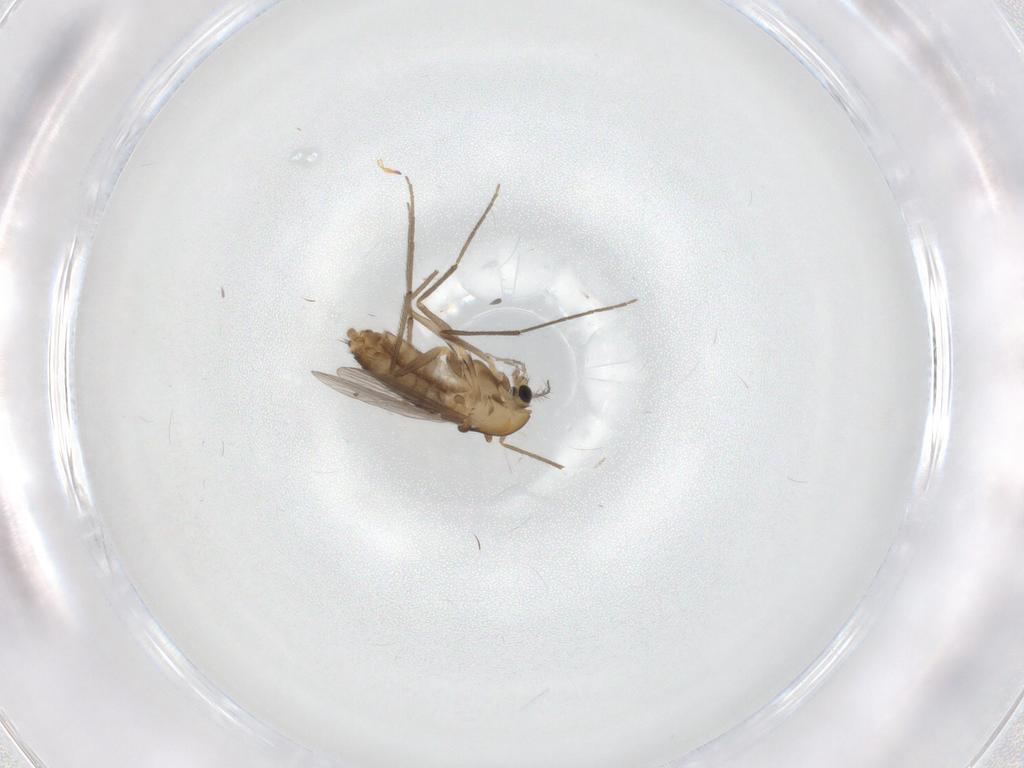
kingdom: Animalia
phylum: Arthropoda
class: Insecta
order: Diptera
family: Chironomidae
